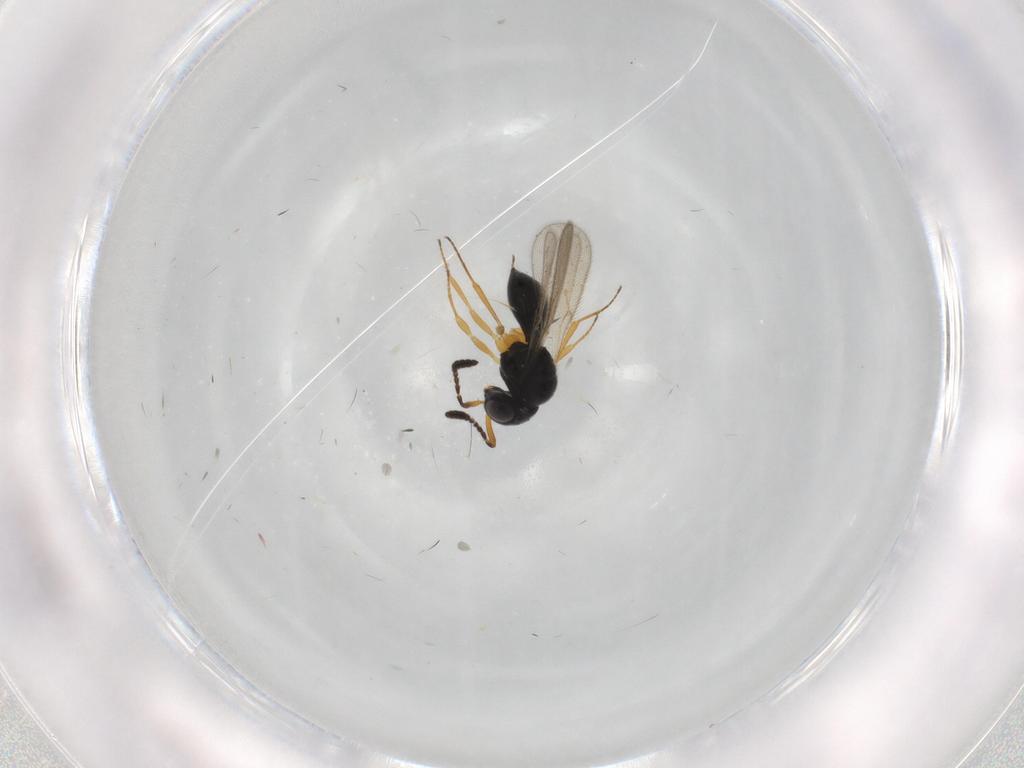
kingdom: Animalia
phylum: Arthropoda
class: Insecta
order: Hymenoptera
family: Scelionidae
